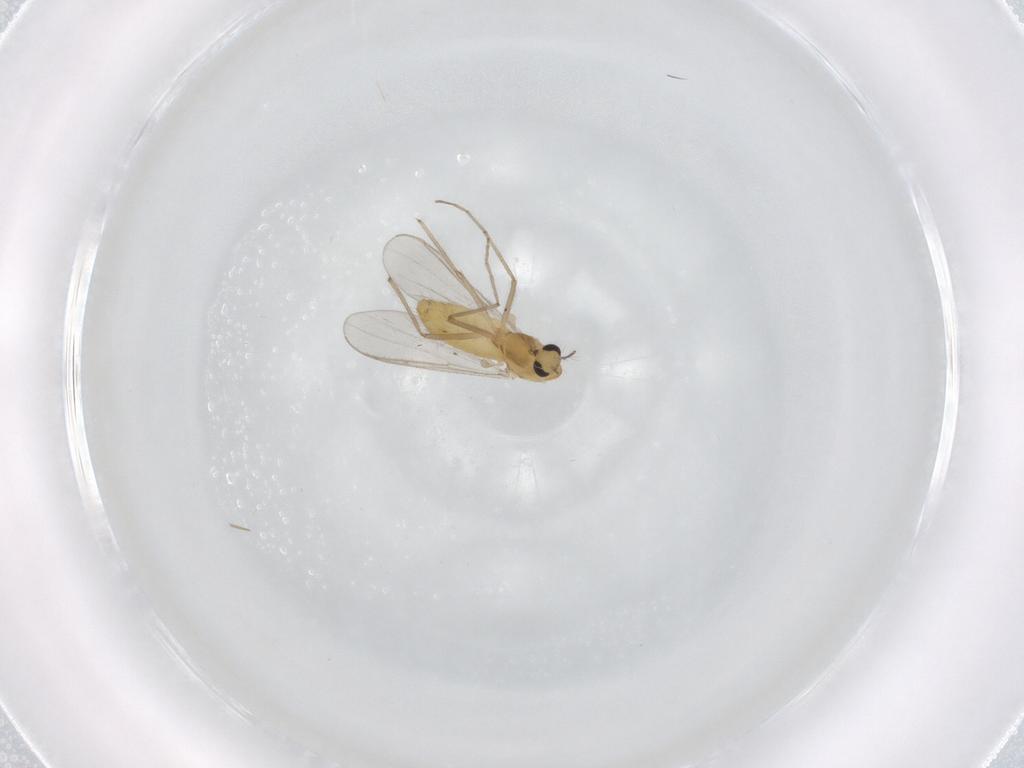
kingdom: Animalia
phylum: Arthropoda
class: Insecta
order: Diptera
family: Chironomidae
